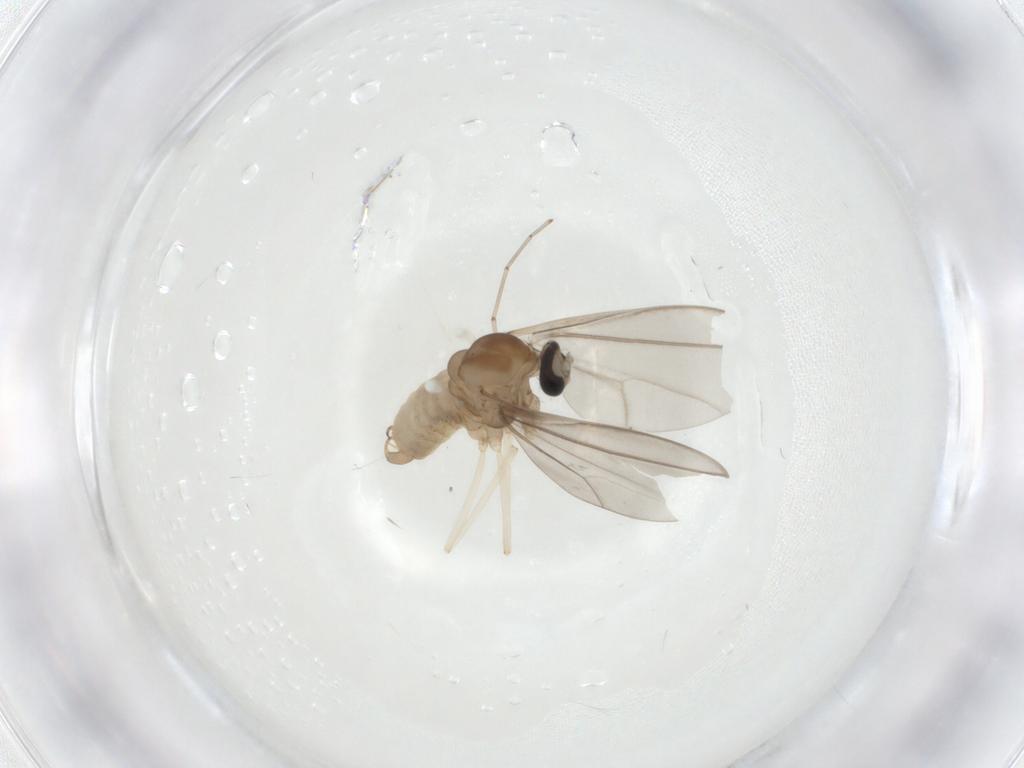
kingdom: Animalia
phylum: Arthropoda
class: Insecta
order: Diptera
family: Cecidomyiidae
